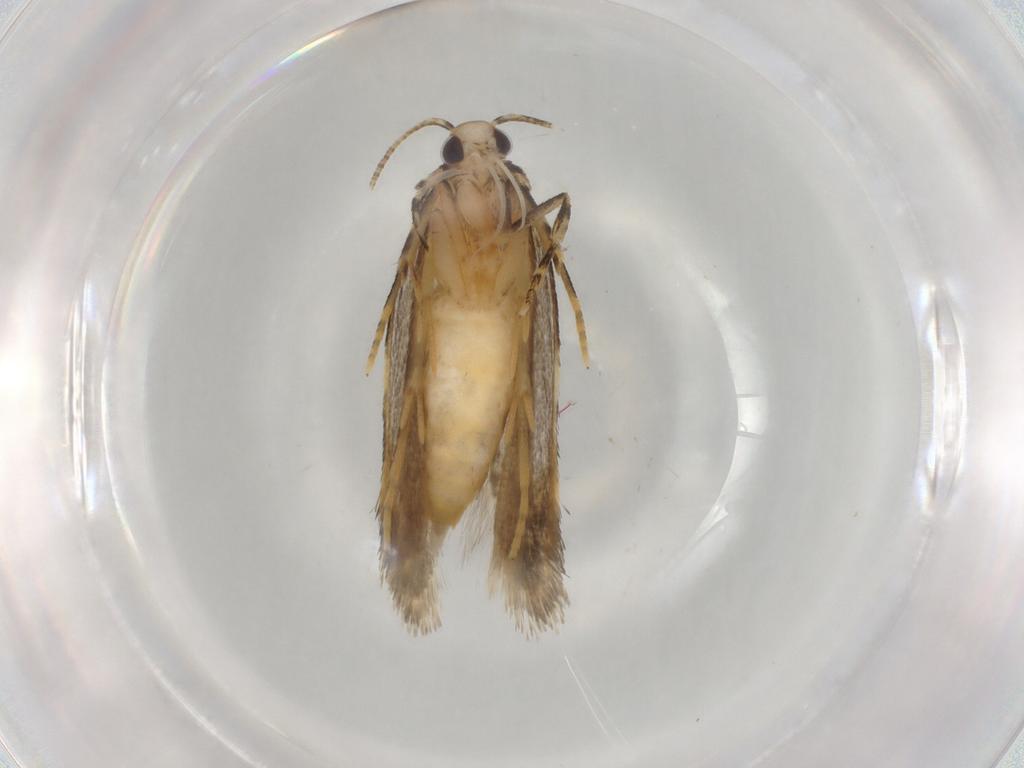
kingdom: Animalia
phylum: Arthropoda
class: Insecta
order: Lepidoptera
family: Autostichidae
